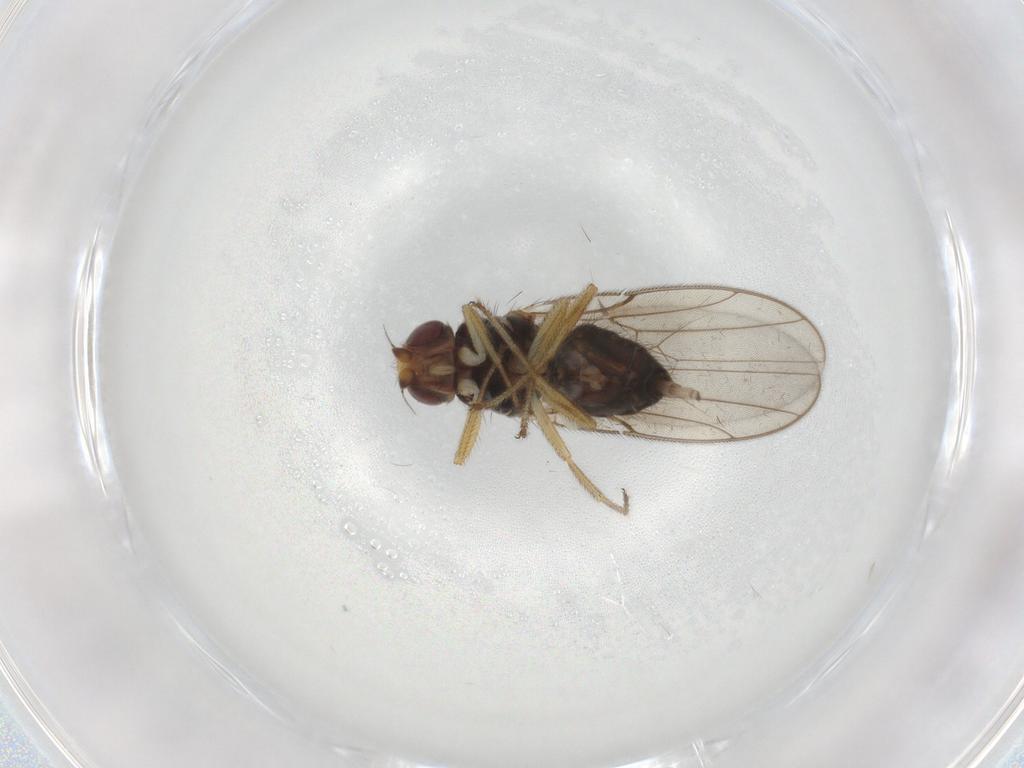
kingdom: Animalia
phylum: Arthropoda
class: Insecta
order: Diptera
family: Chloropidae
